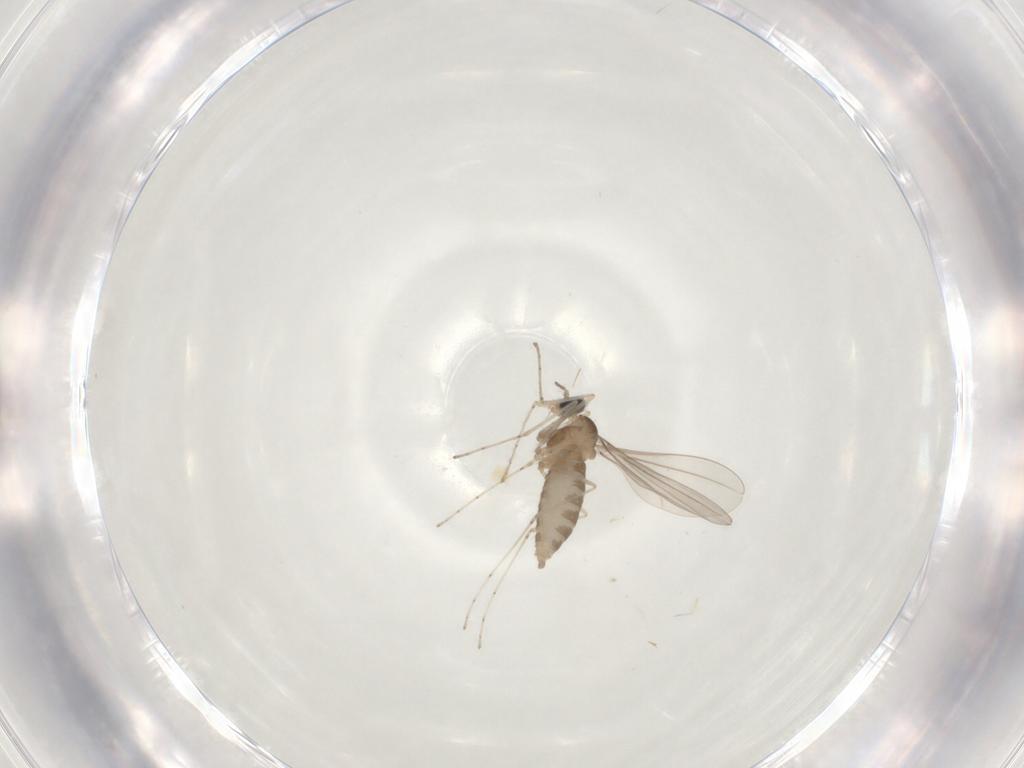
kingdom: Animalia
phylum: Arthropoda
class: Insecta
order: Diptera
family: Cecidomyiidae
